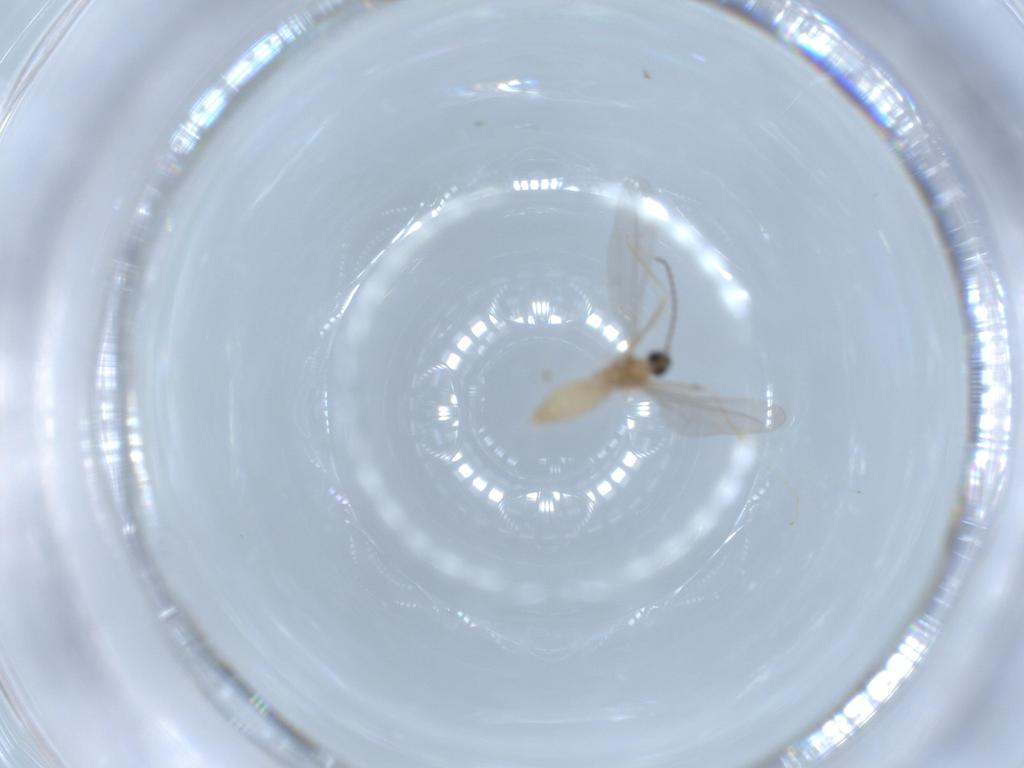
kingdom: Animalia
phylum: Arthropoda
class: Insecta
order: Diptera
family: Cecidomyiidae
